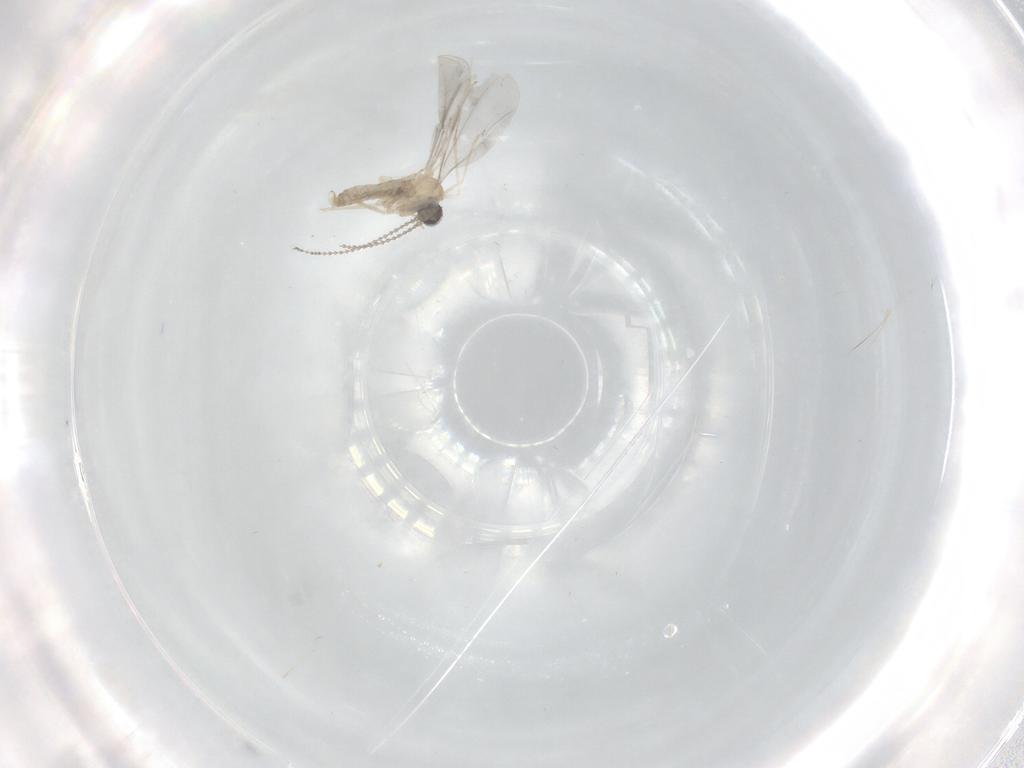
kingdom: Animalia
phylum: Arthropoda
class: Insecta
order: Diptera
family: Cecidomyiidae
